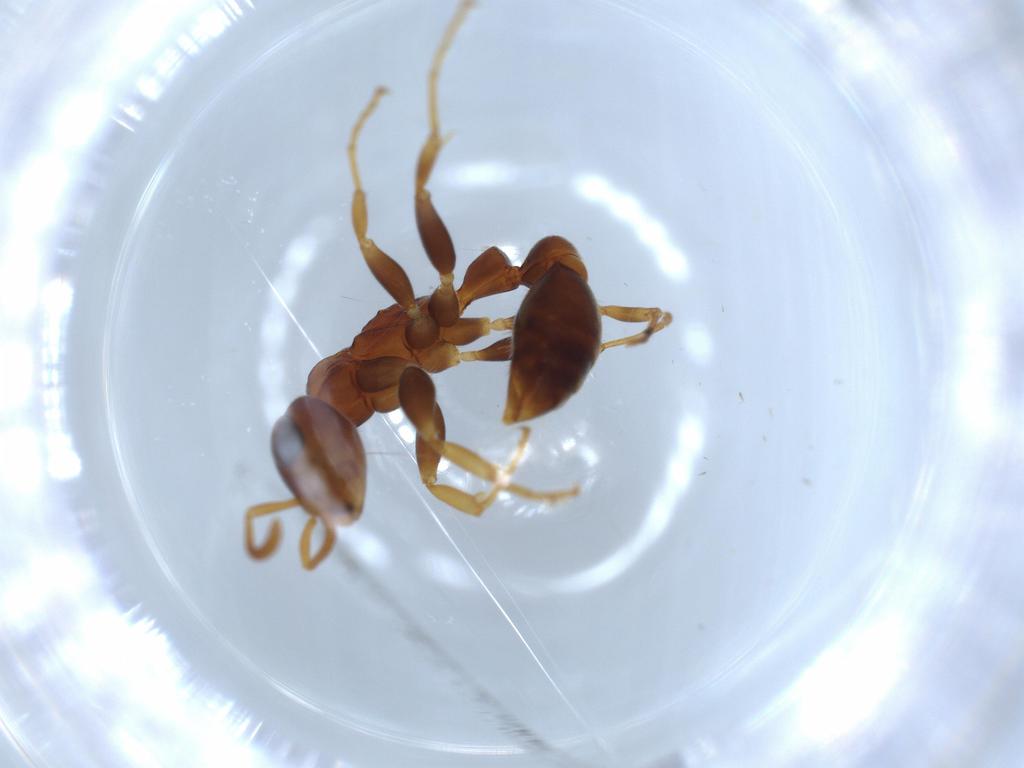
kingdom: Animalia
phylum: Arthropoda
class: Insecta
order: Hymenoptera
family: Formicidae
